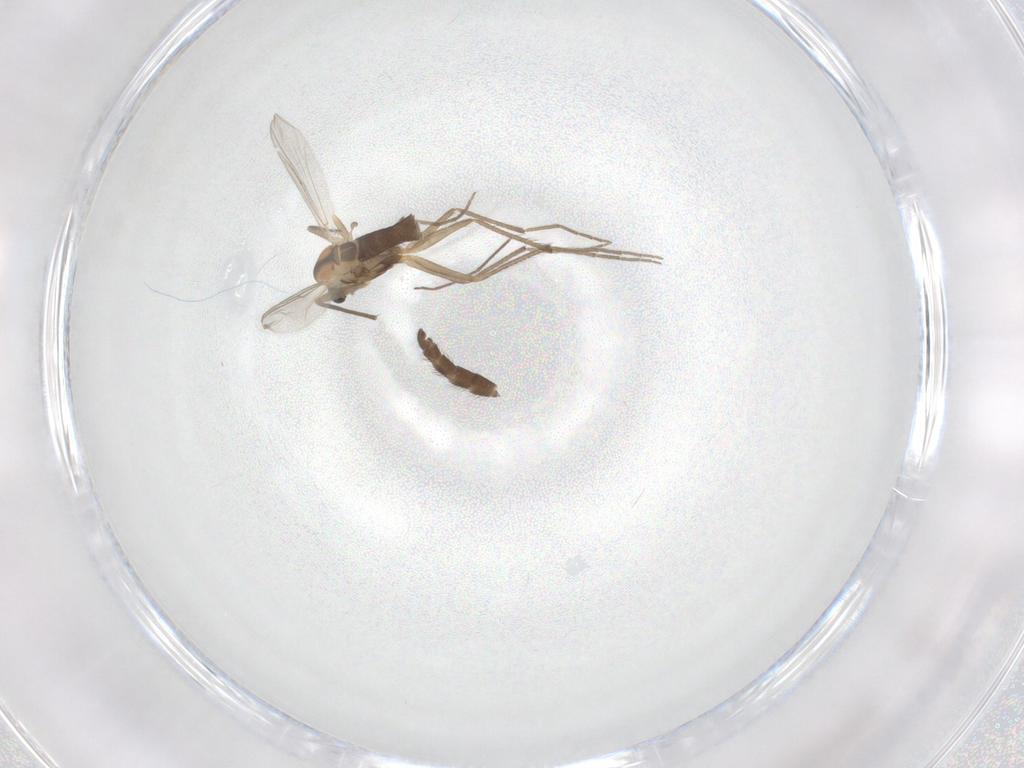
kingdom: Animalia
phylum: Arthropoda
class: Insecta
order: Diptera
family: Chironomidae
